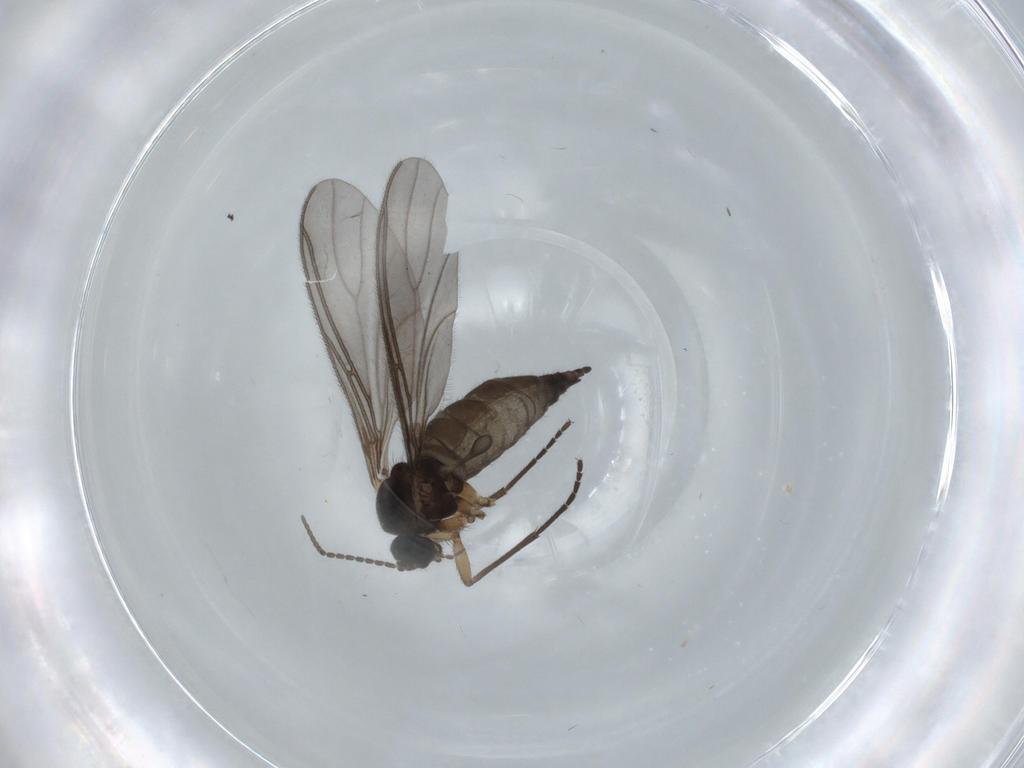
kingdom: Animalia
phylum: Arthropoda
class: Insecta
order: Diptera
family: Sciaridae
